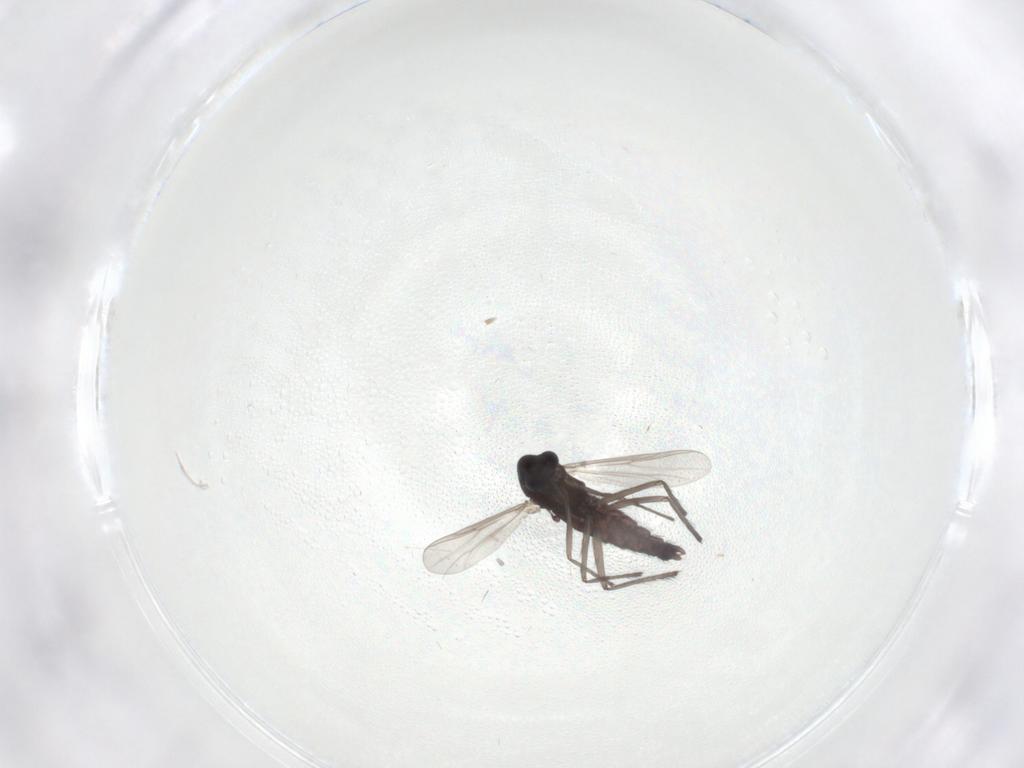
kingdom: Animalia
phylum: Arthropoda
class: Insecta
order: Diptera
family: Chironomidae
